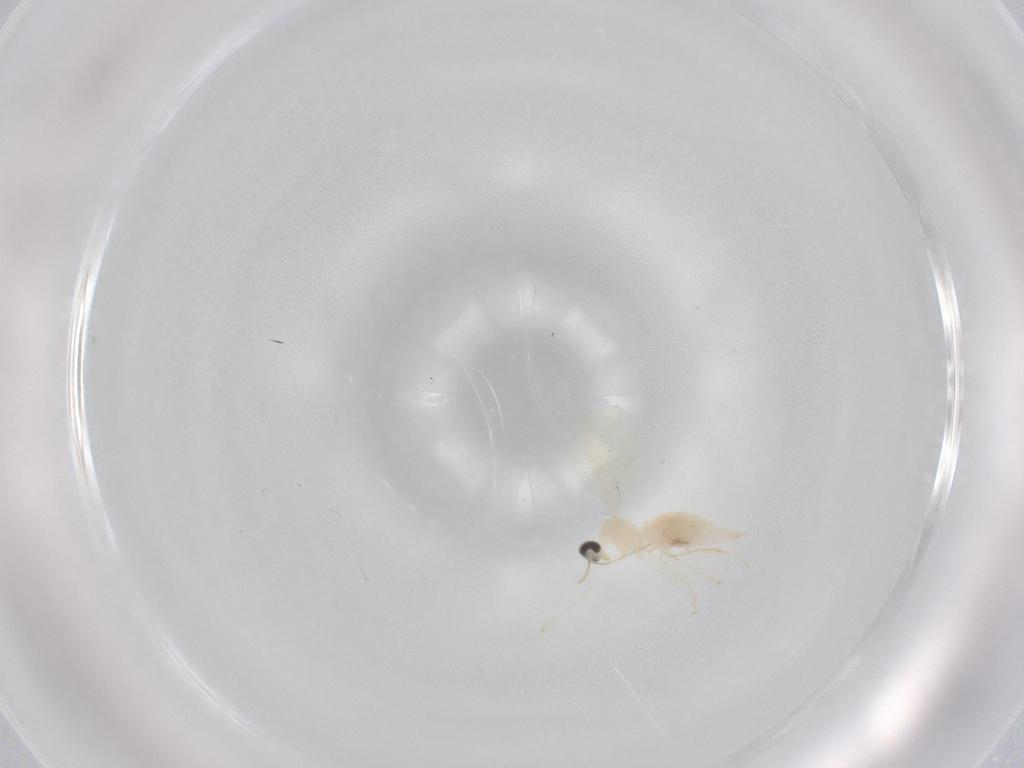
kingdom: Animalia
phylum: Arthropoda
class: Insecta
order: Diptera
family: Cecidomyiidae
